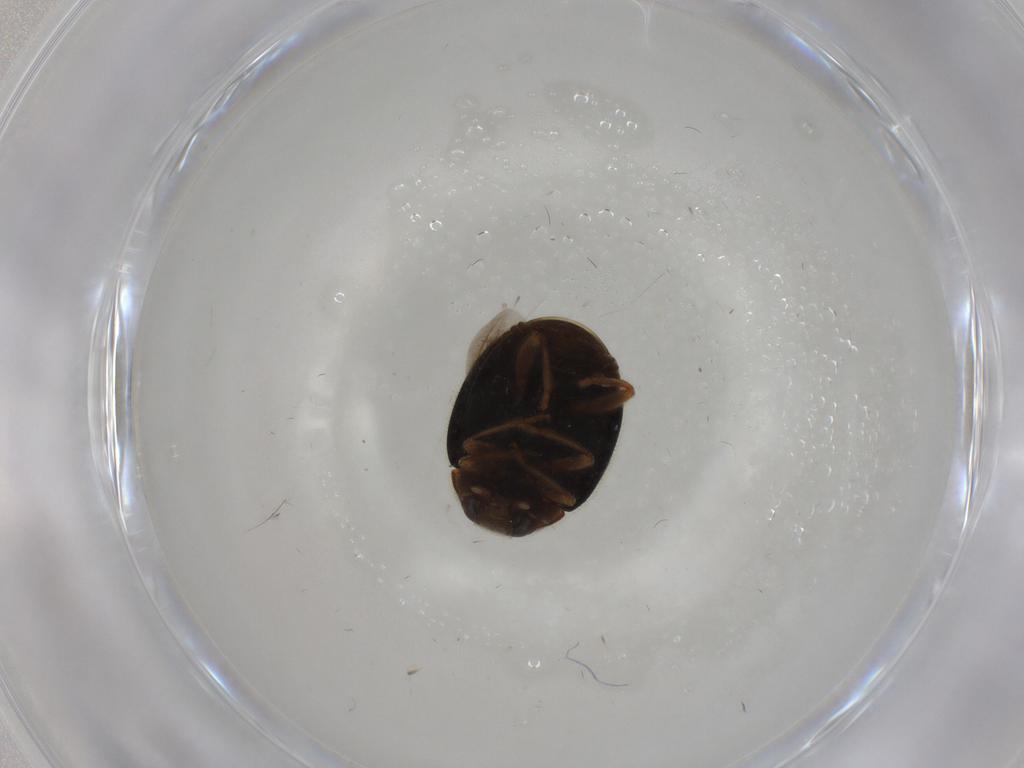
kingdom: Animalia
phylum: Arthropoda
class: Insecta
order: Coleoptera
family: Coccinellidae
